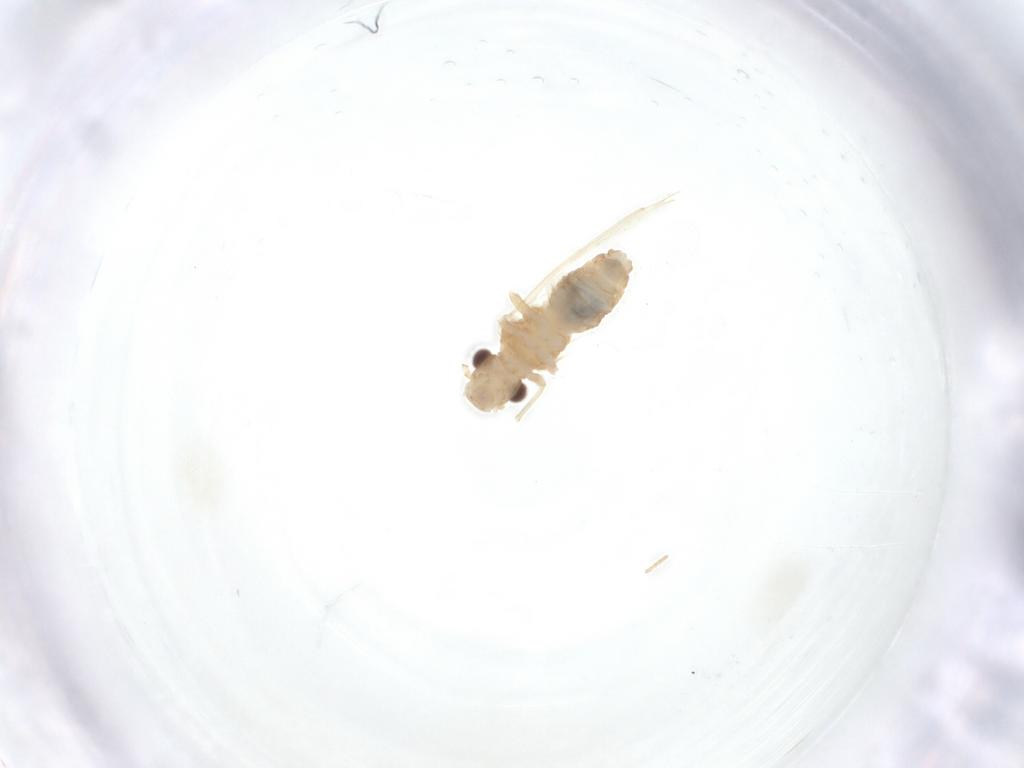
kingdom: Animalia
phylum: Arthropoda
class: Insecta
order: Psocodea
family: Philotarsidae
